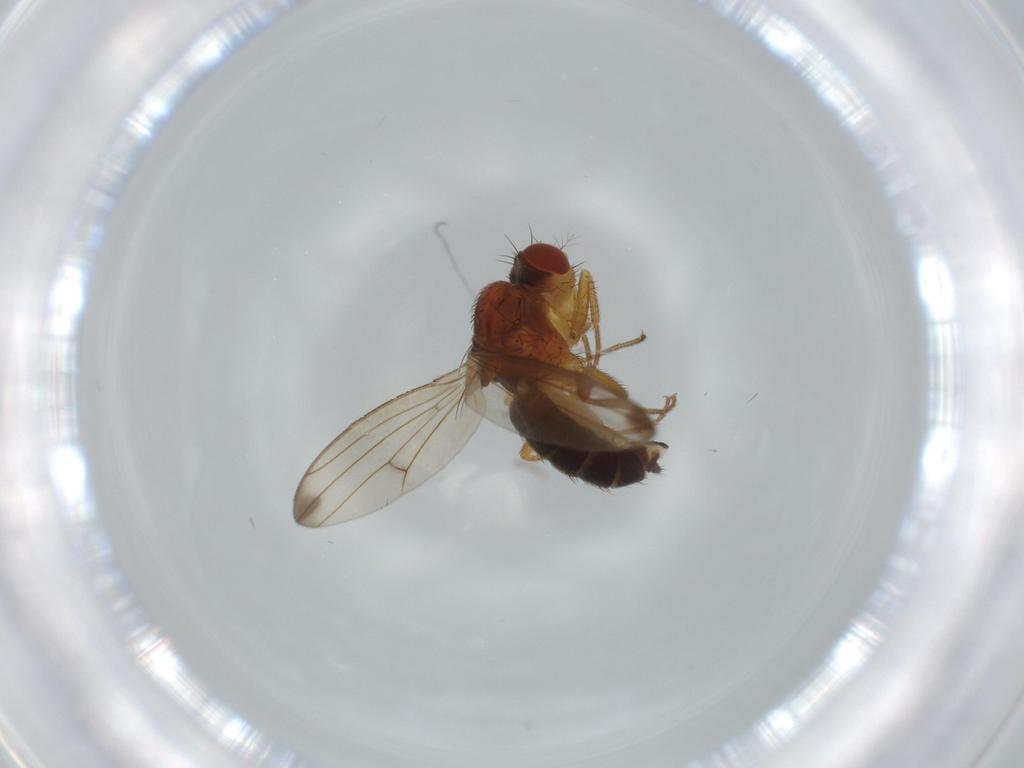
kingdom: Animalia
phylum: Arthropoda
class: Insecta
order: Diptera
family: Drosophilidae
